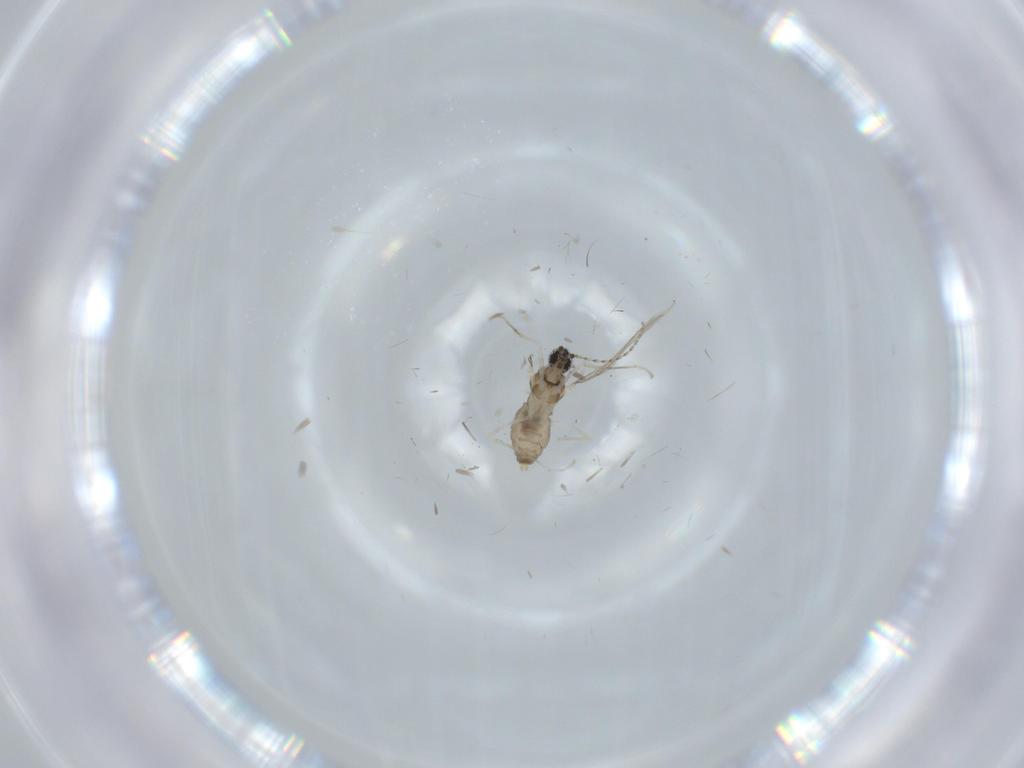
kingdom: Animalia
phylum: Arthropoda
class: Insecta
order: Diptera
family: Cecidomyiidae
